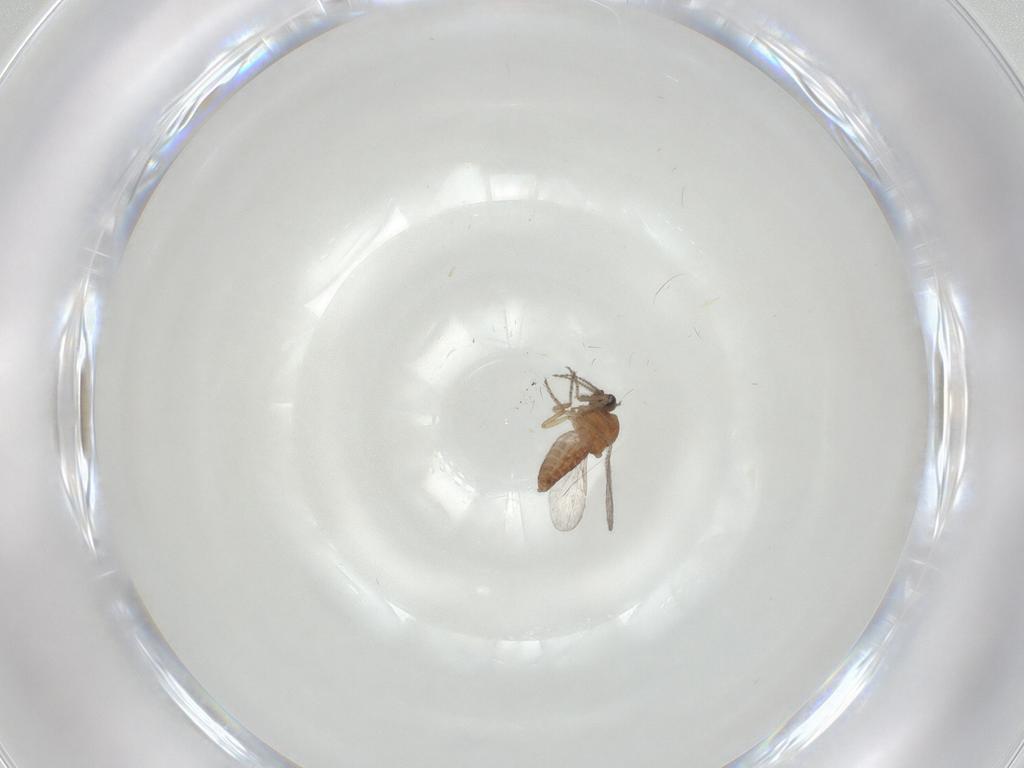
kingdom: Animalia
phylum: Arthropoda
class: Insecta
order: Diptera
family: Ceratopogonidae
